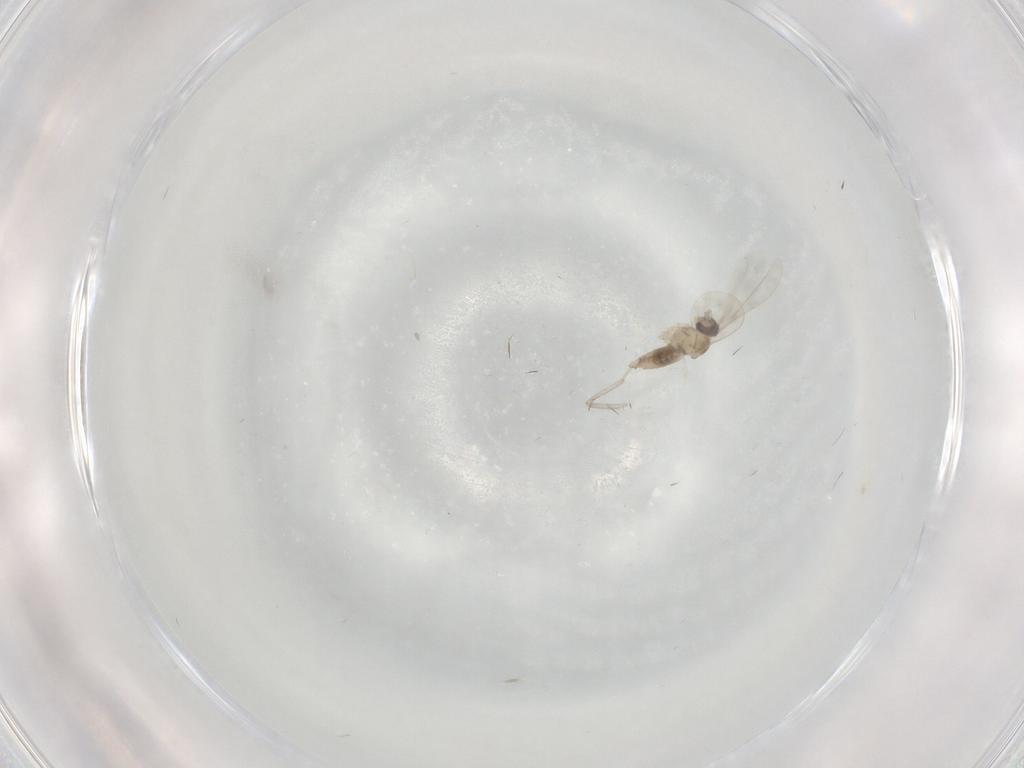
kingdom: Animalia
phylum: Arthropoda
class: Insecta
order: Diptera
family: Cecidomyiidae
